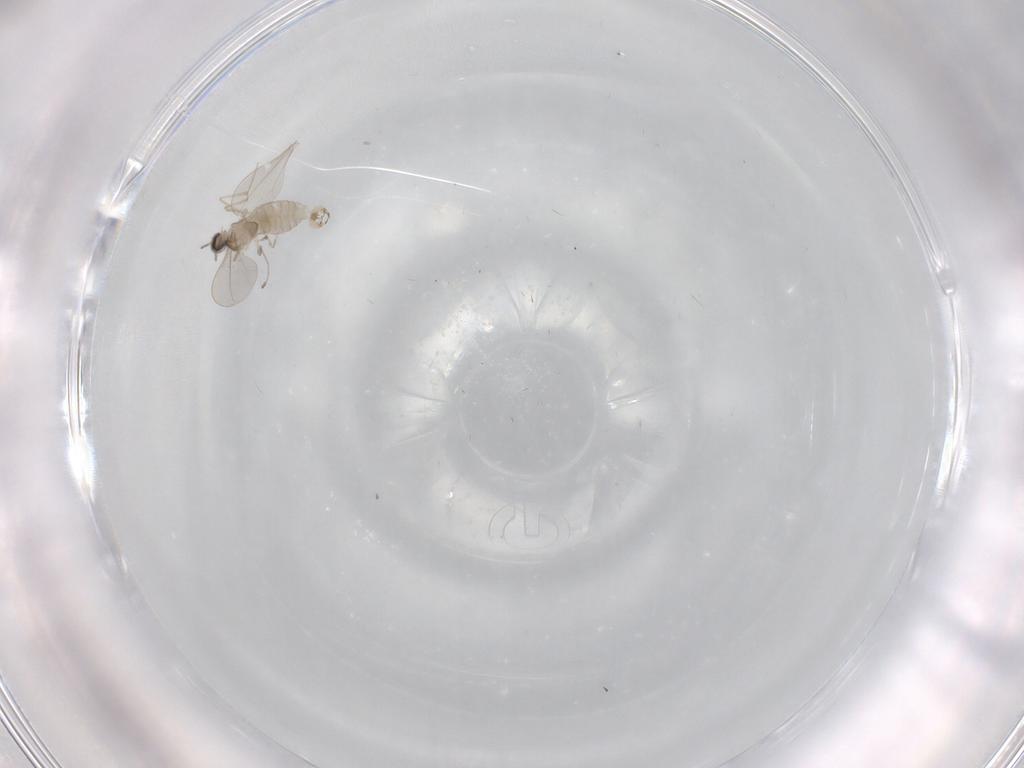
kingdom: Animalia
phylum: Arthropoda
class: Insecta
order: Diptera
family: Cecidomyiidae
